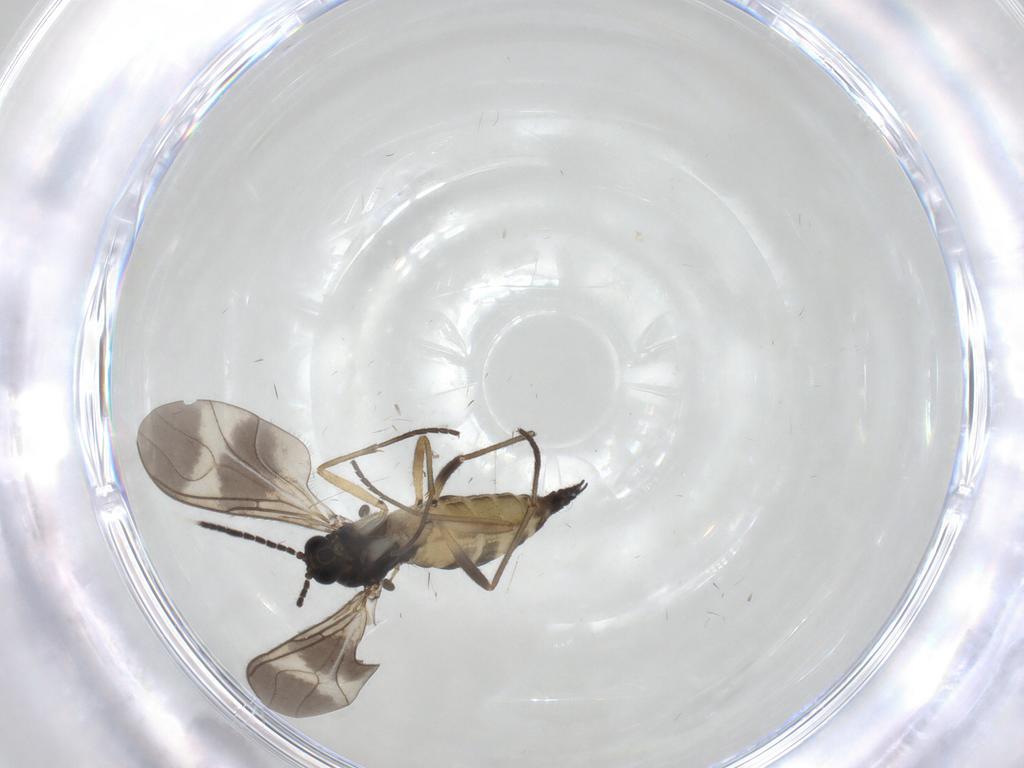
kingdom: Animalia
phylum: Arthropoda
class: Insecta
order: Diptera
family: Sciaridae
